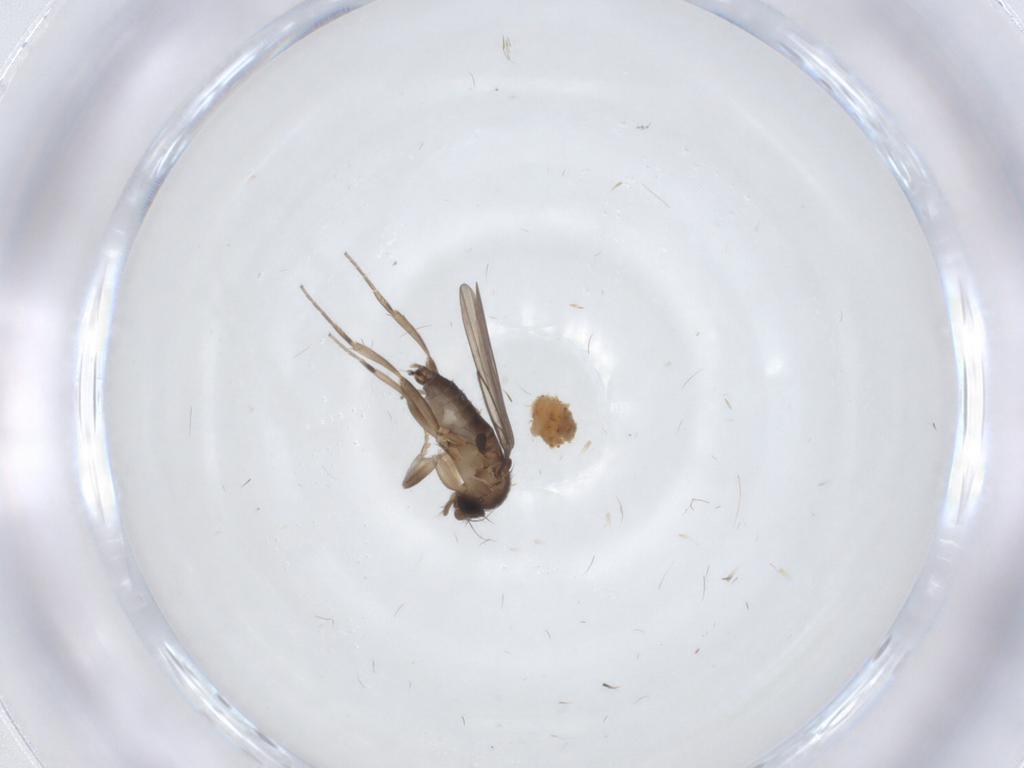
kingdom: Animalia
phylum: Arthropoda
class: Insecta
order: Diptera
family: Phoridae
